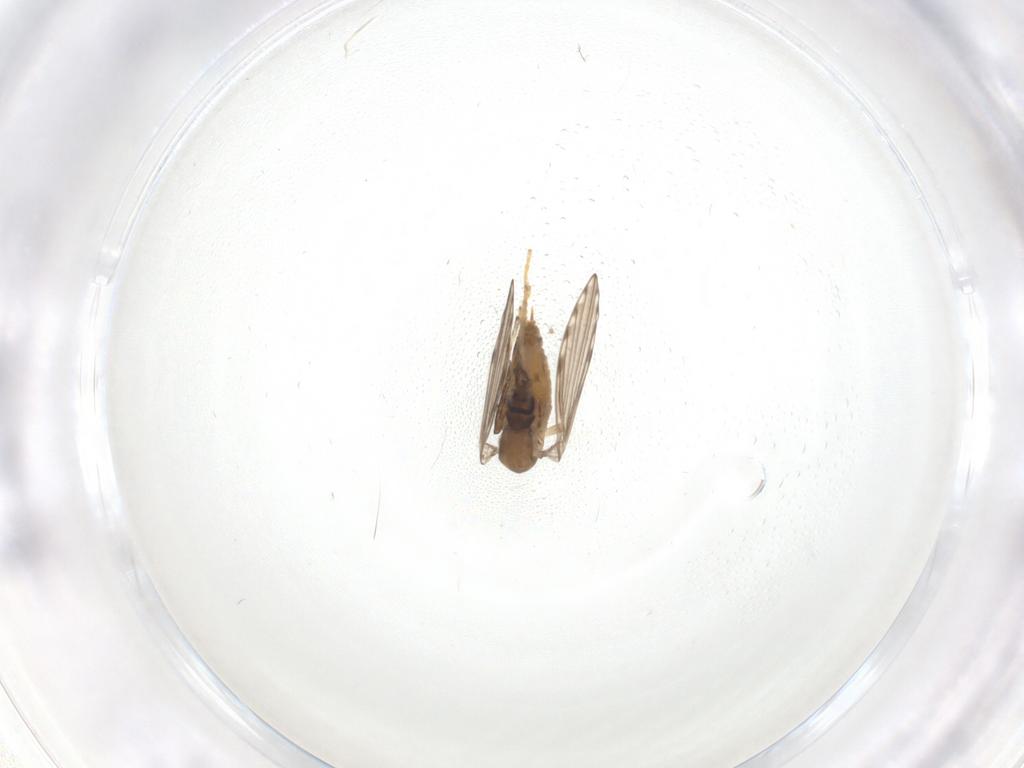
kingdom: Animalia
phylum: Arthropoda
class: Insecta
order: Diptera
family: Psychodidae
